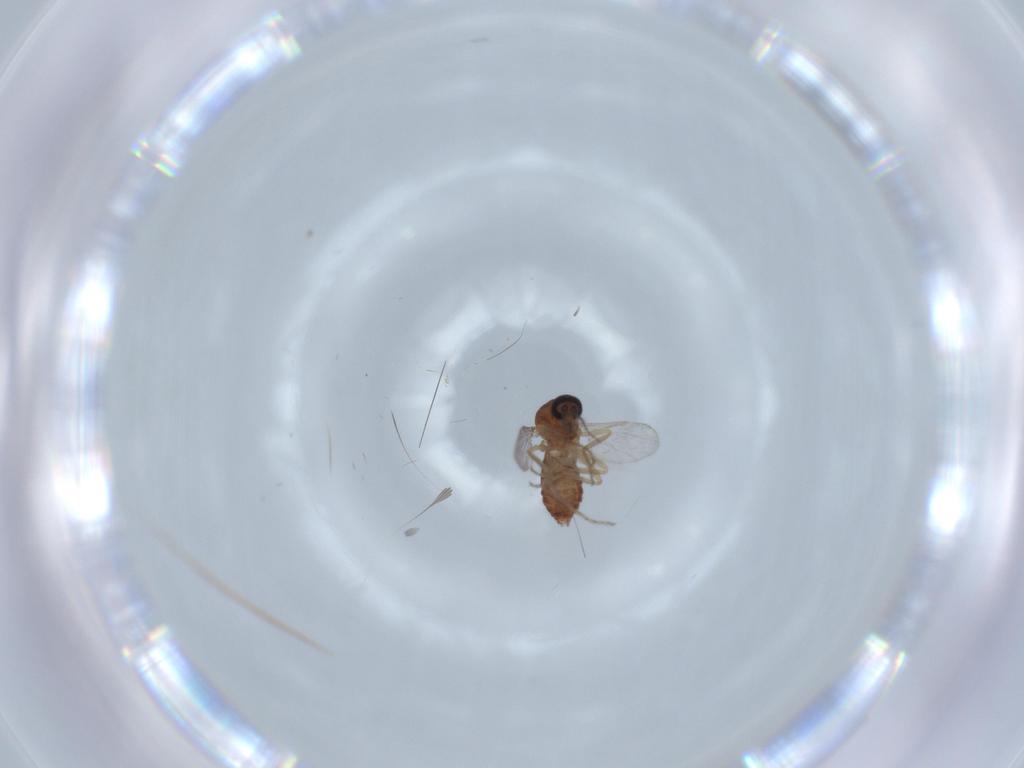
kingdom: Animalia
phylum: Arthropoda
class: Insecta
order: Diptera
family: Ceratopogonidae
